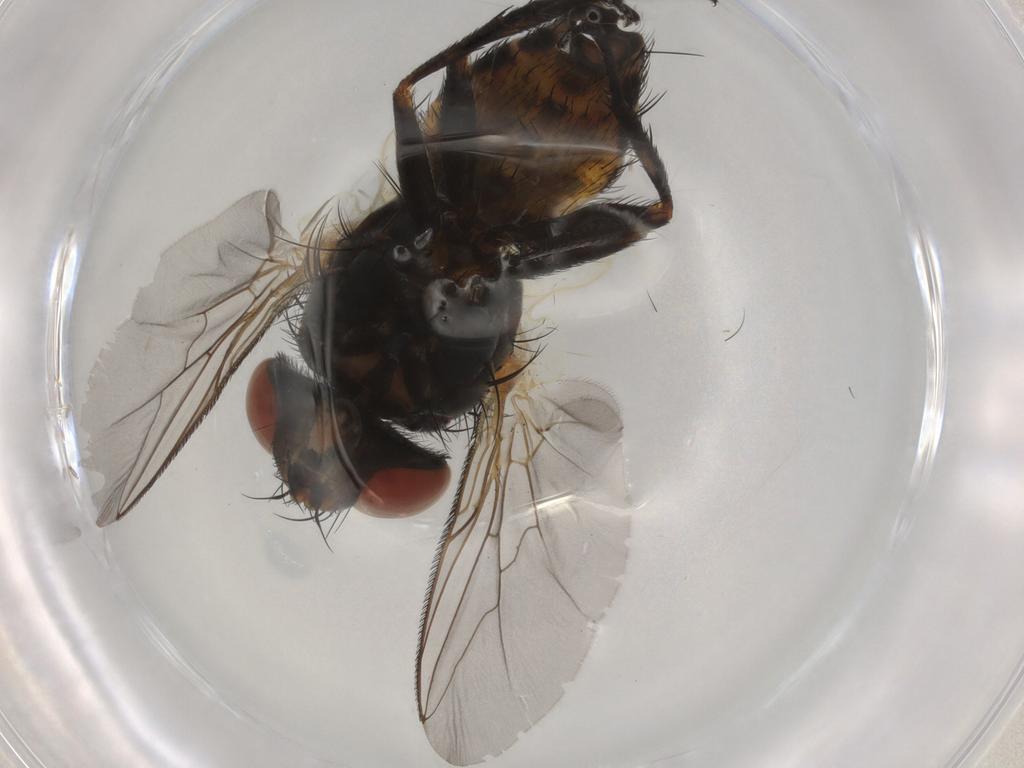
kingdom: Animalia
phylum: Arthropoda
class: Insecta
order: Diptera
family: Sarcophagidae
